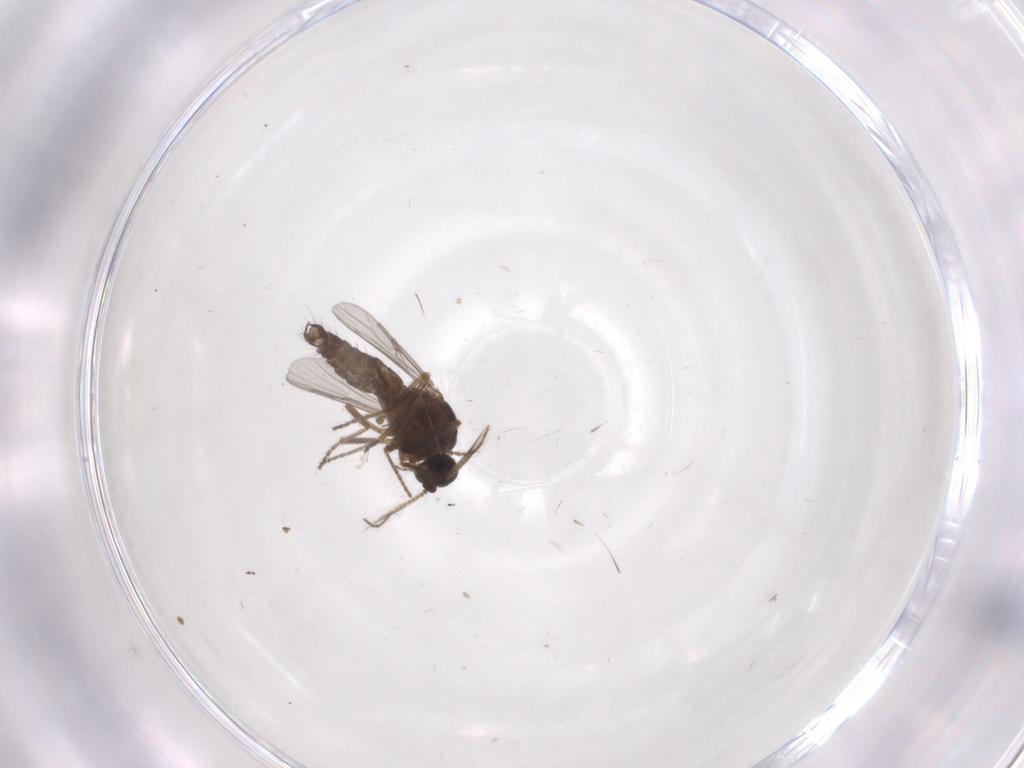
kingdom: Animalia
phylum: Arthropoda
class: Insecta
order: Diptera
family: Ceratopogonidae
